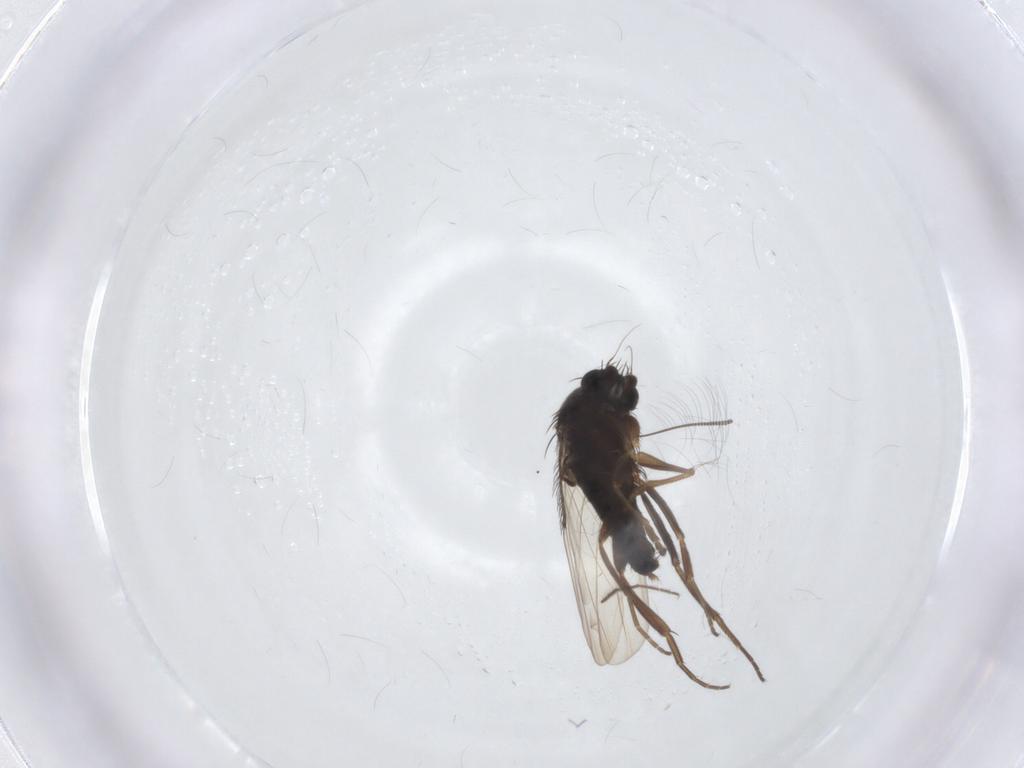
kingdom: Animalia
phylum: Arthropoda
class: Insecta
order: Diptera
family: Phoridae
